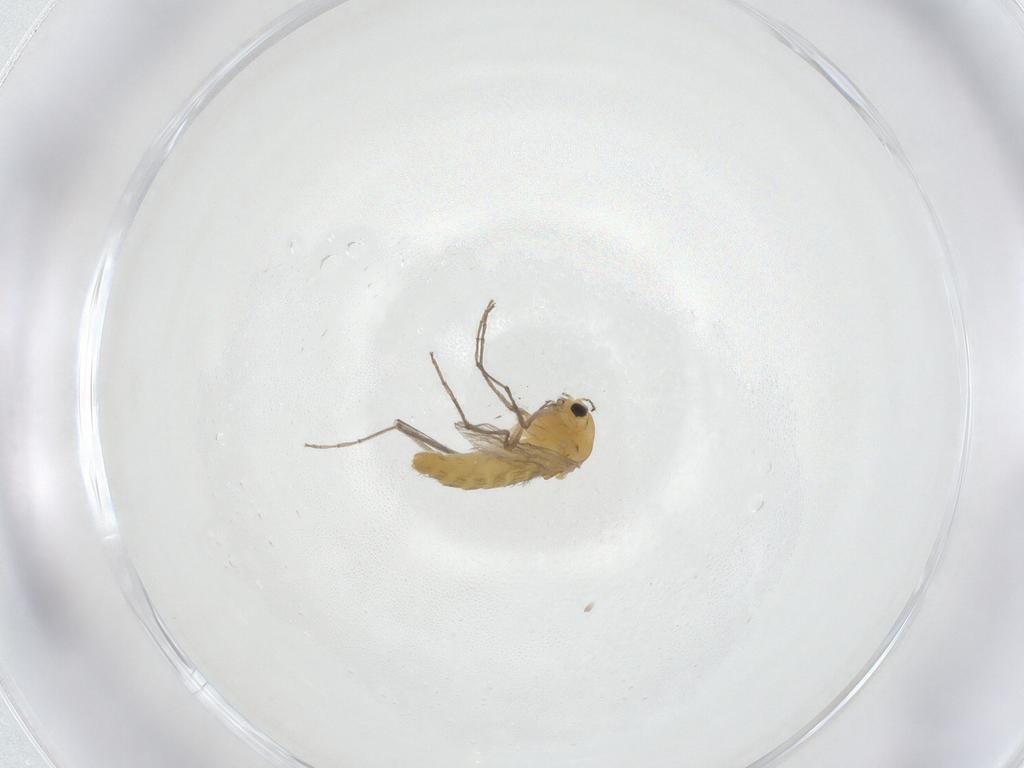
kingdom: Animalia
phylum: Arthropoda
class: Insecta
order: Diptera
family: Chironomidae
